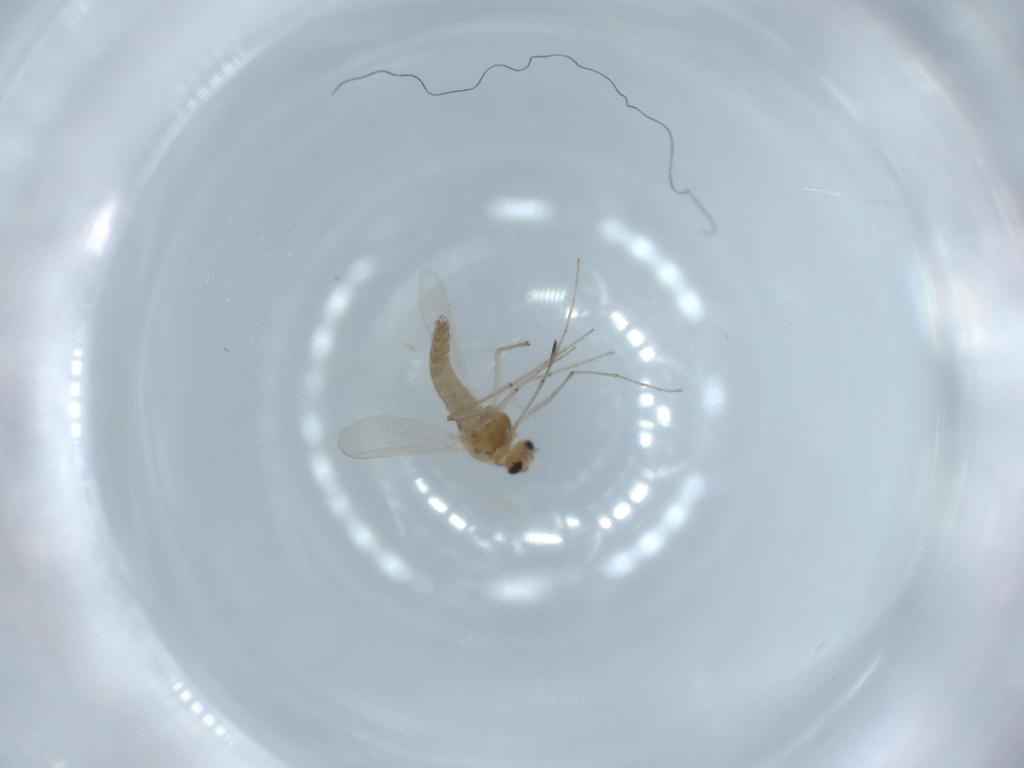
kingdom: Animalia
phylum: Arthropoda
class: Insecta
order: Diptera
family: Chironomidae
